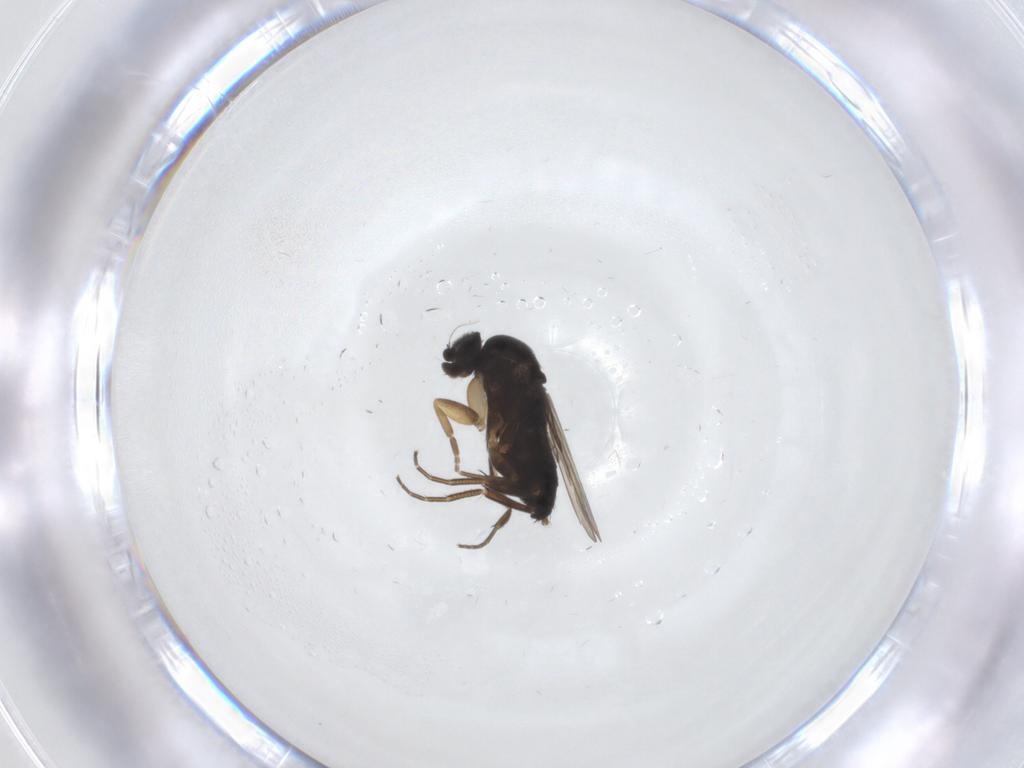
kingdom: Animalia
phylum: Arthropoda
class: Insecta
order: Diptera
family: Phoridae
